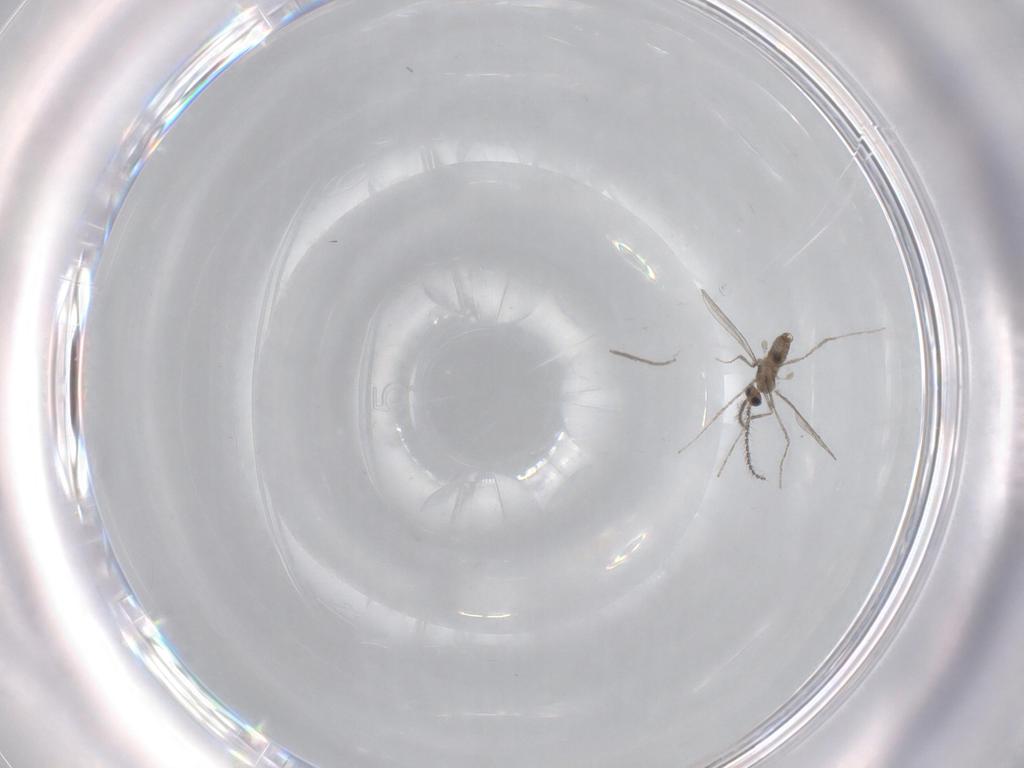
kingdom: Animalia
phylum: Arthropoda
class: Insecta
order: Diptera
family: Chironomidae
